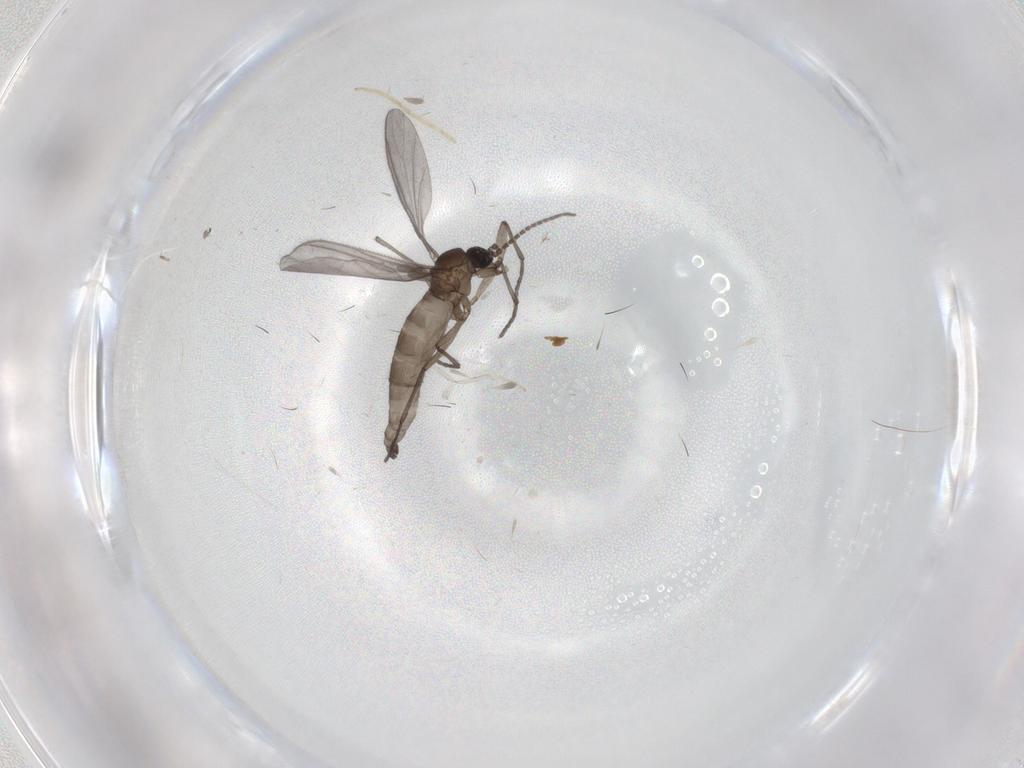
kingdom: Animalia
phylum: Arthropoda
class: Insecta
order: Diptera
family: Sciaridae
